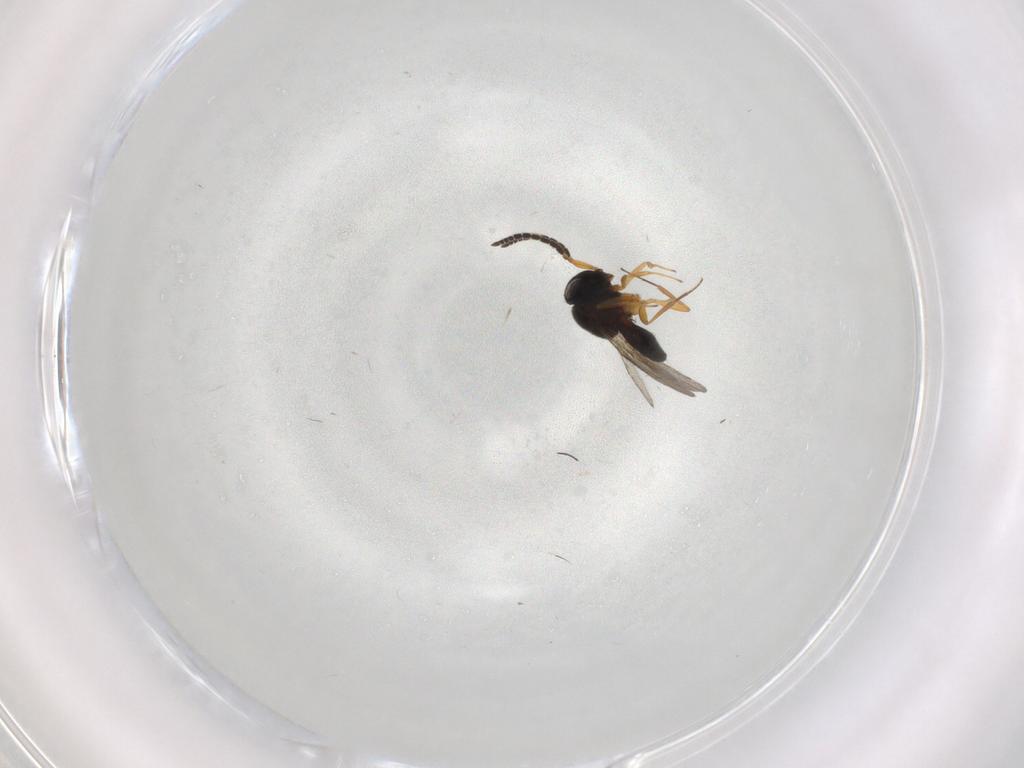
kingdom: Animalia
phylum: Arthropoda
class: Insecta
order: Hymenoptera
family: Scelionidae
